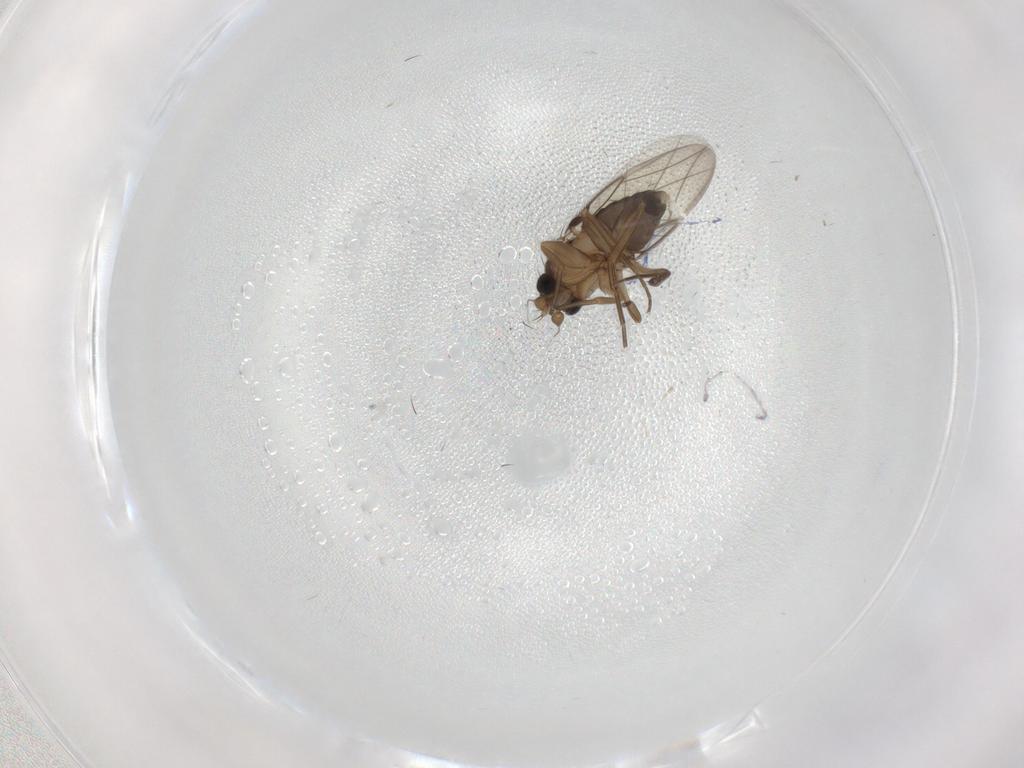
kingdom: Animalia
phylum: Arthropoda
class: Insecta
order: Diptera
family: Phoridae
